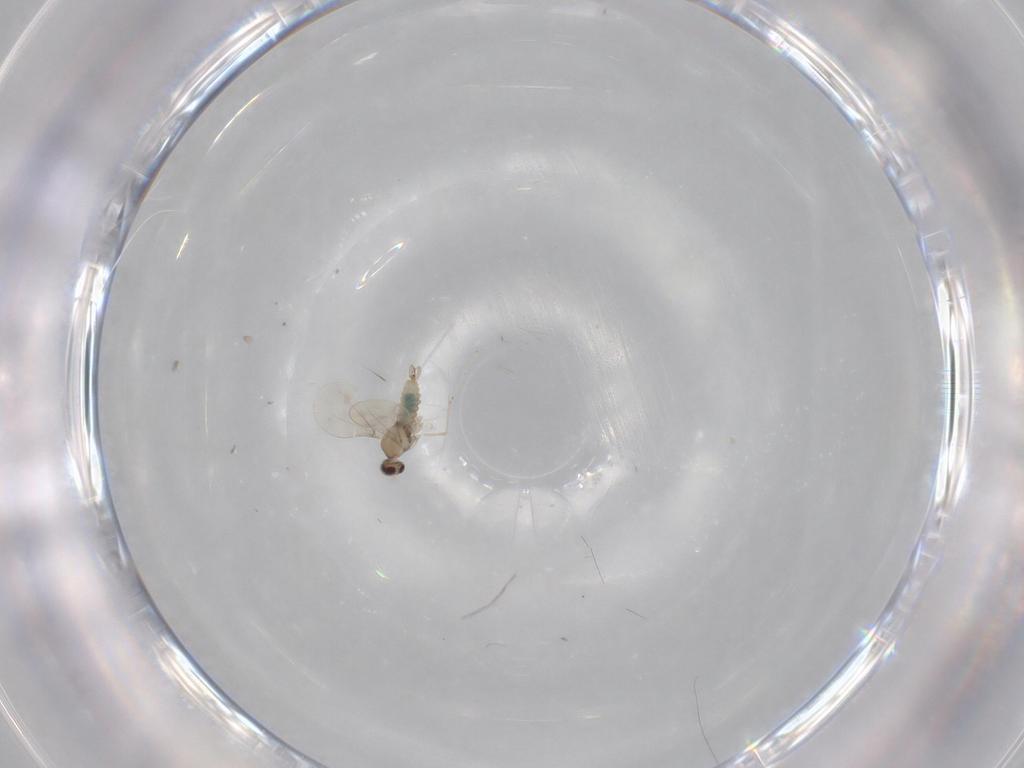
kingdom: Animalia
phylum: Arthropoda
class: Insecta
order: Diptera
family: Cecidomyiidae
